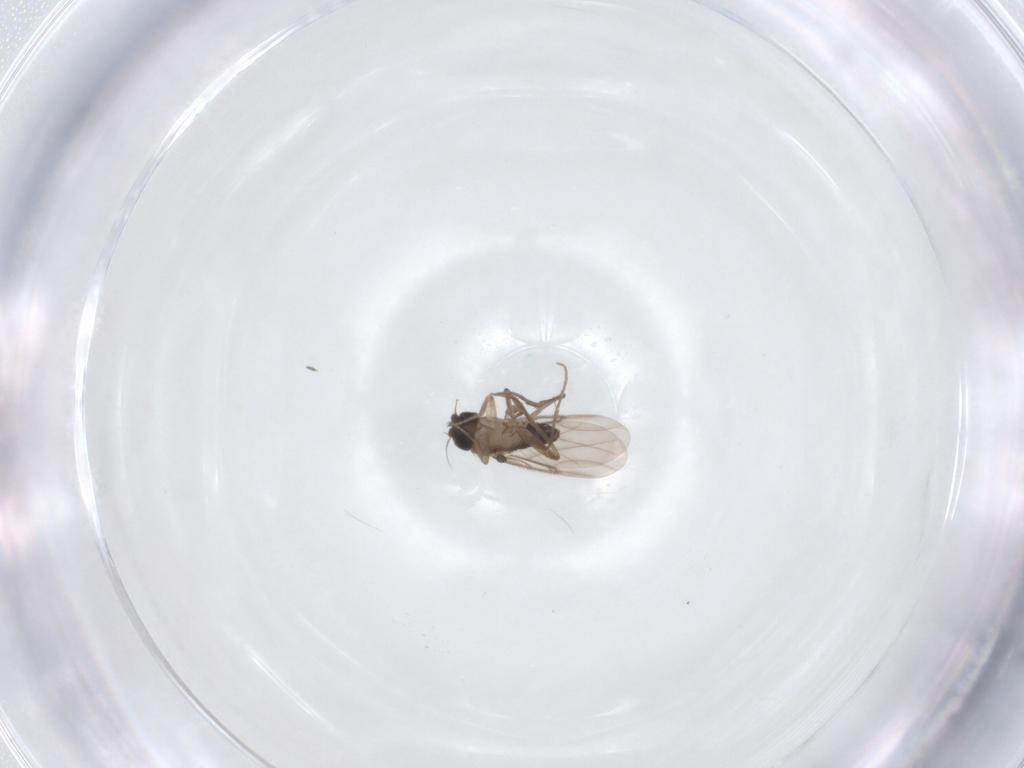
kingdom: Animalia
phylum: Arthropoda
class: Insecta
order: Diptera
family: Phoridae
